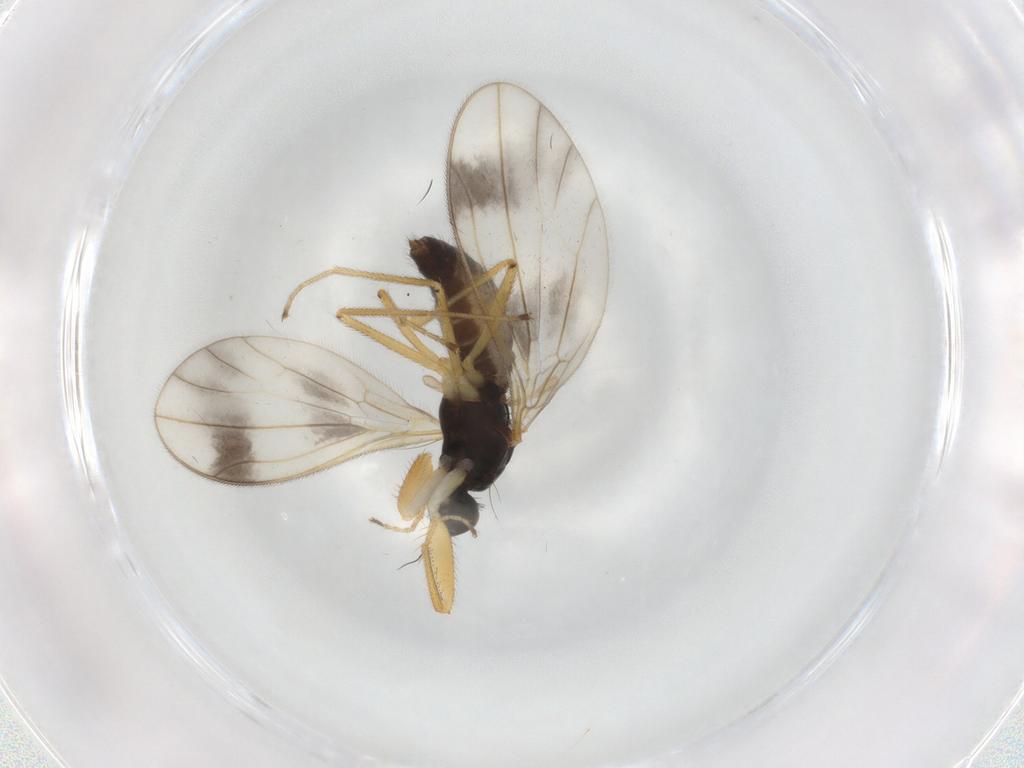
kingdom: Animalia
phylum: Arthropoda
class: Insecta
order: Diptera
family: Empididae
